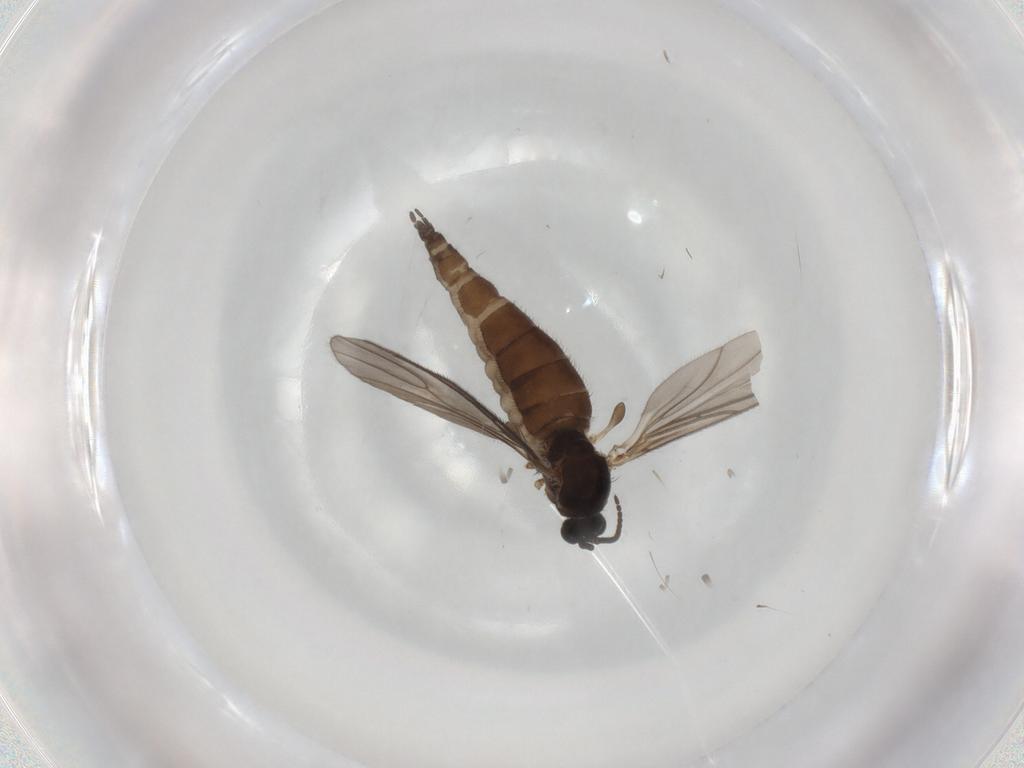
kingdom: Animalia
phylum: Arthropoda
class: Insecta
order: Diptera
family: Sciaridae
